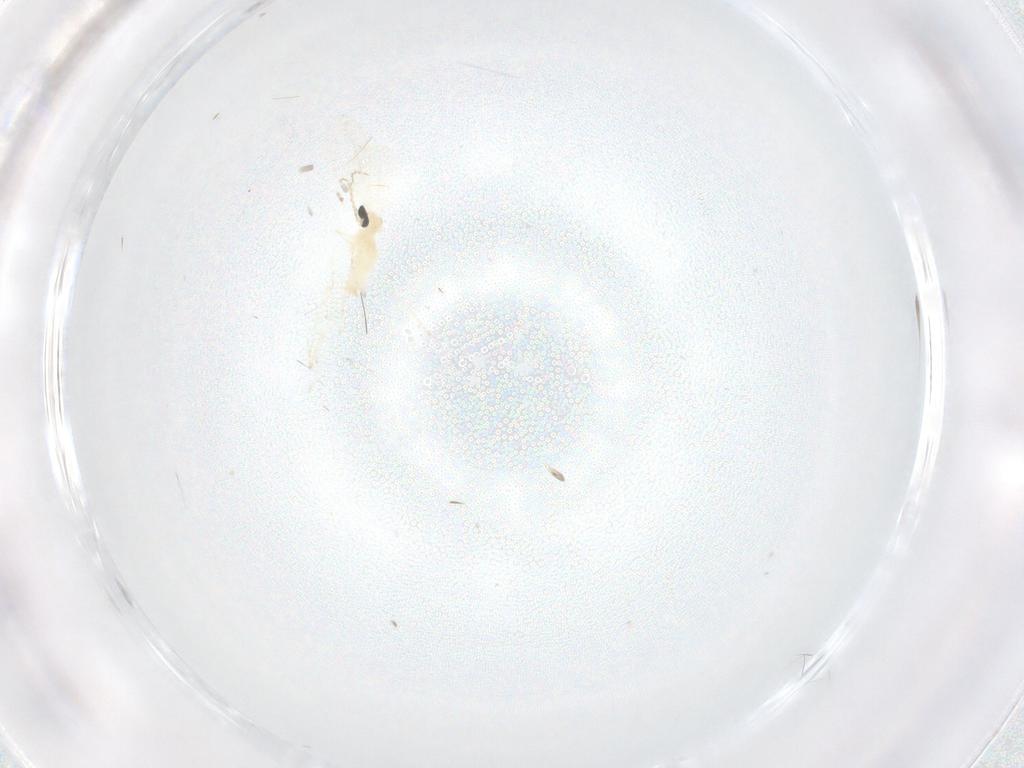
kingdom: Animalia
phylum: Arthropoda
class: Insecta
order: Diptera
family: Cecidomyiidae
